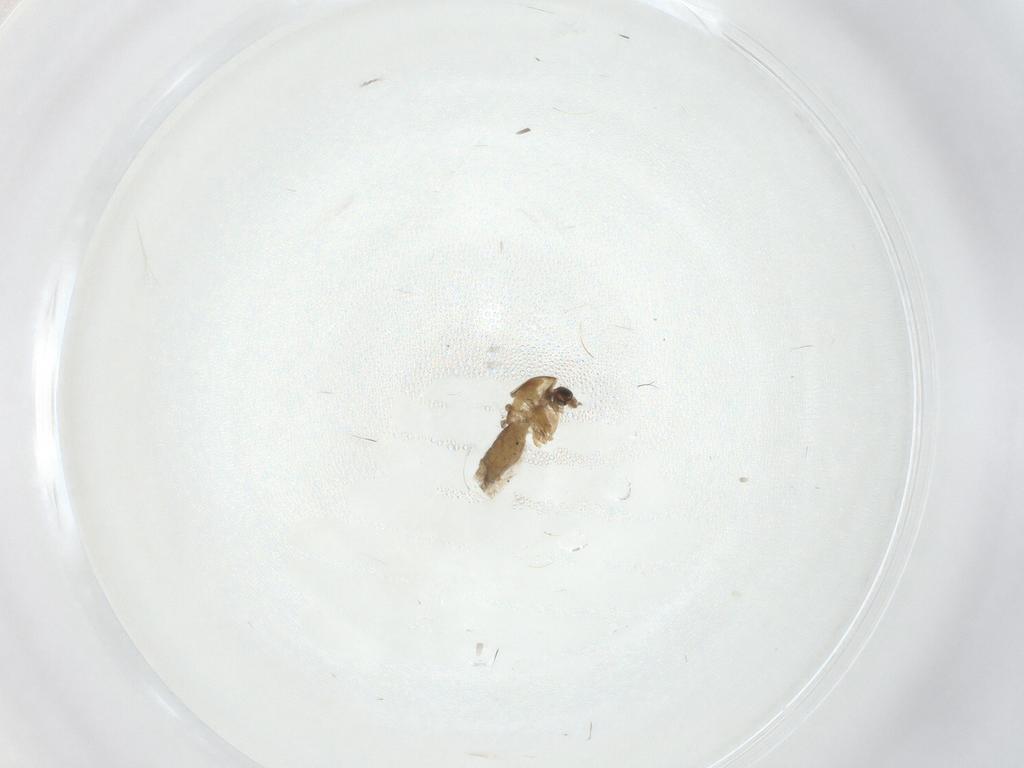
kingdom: Animalia
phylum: Arthropoda
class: Insecta
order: Diptera
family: Chironomidae
